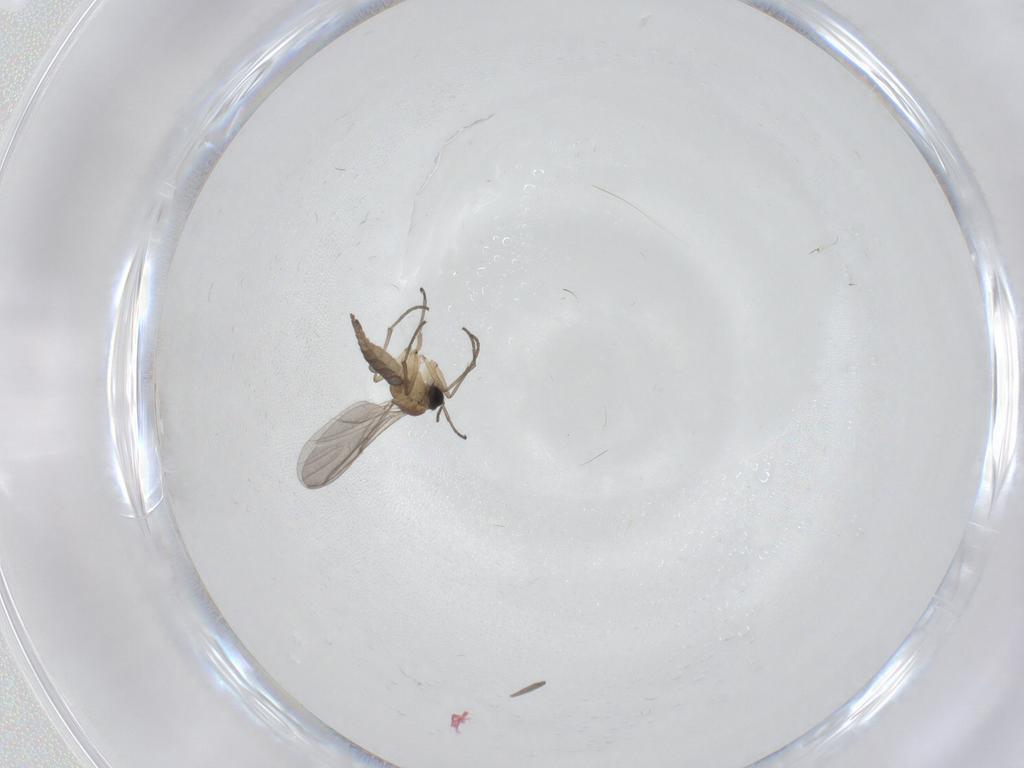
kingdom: Animalia
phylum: Arthropoda
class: Insecta
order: Diptera
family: Sciaridae
